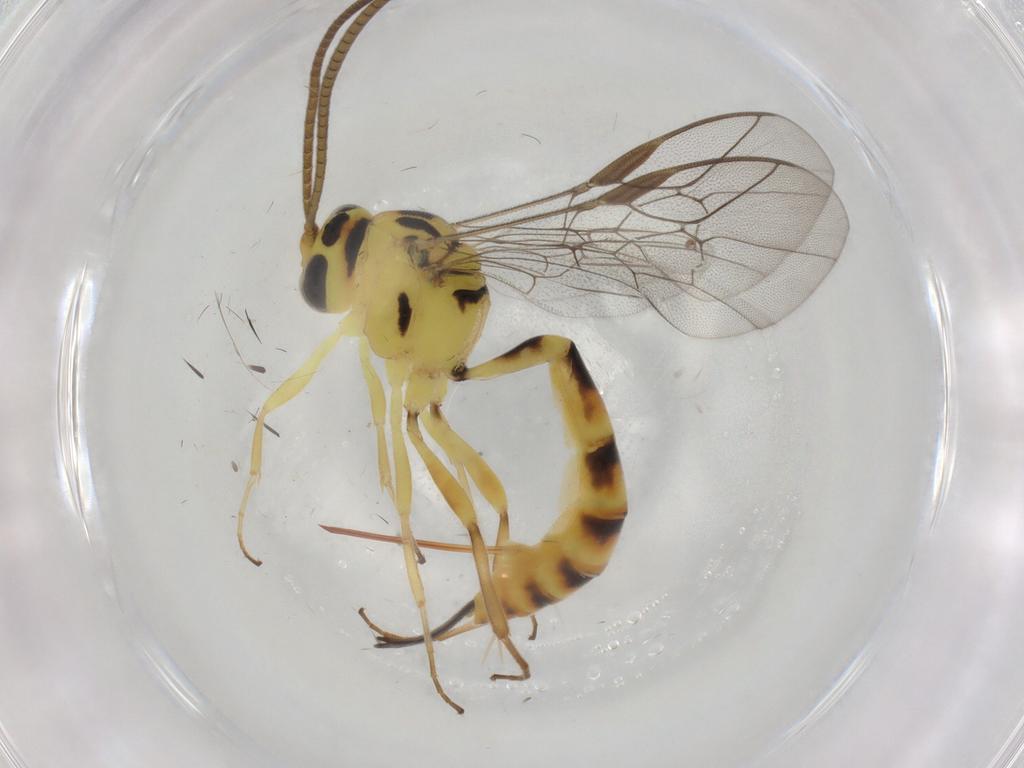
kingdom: Animalia
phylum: Arthropoda
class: Insecta
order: Hymenoptera
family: Ichneumonidae
